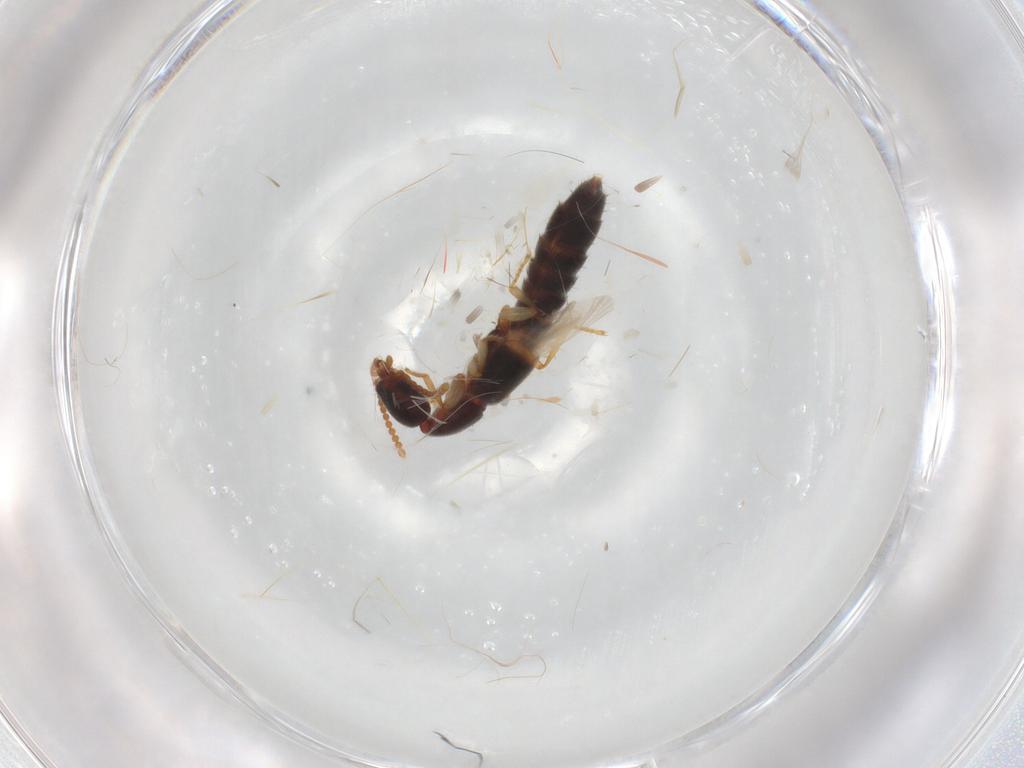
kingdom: Animalia
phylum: Arthropoda
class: Insecta
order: Coleoptera
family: Staphylinidae
